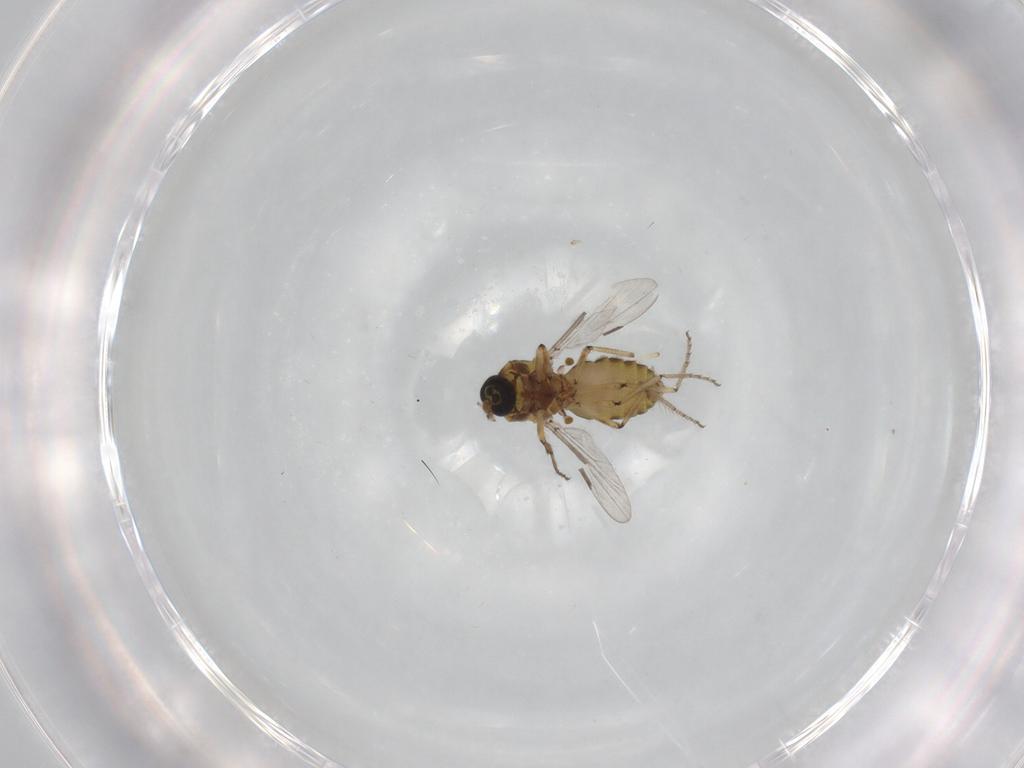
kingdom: Animalia
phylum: Arthropoda
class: Insecta
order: Diptera
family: Ceratopogonidae
